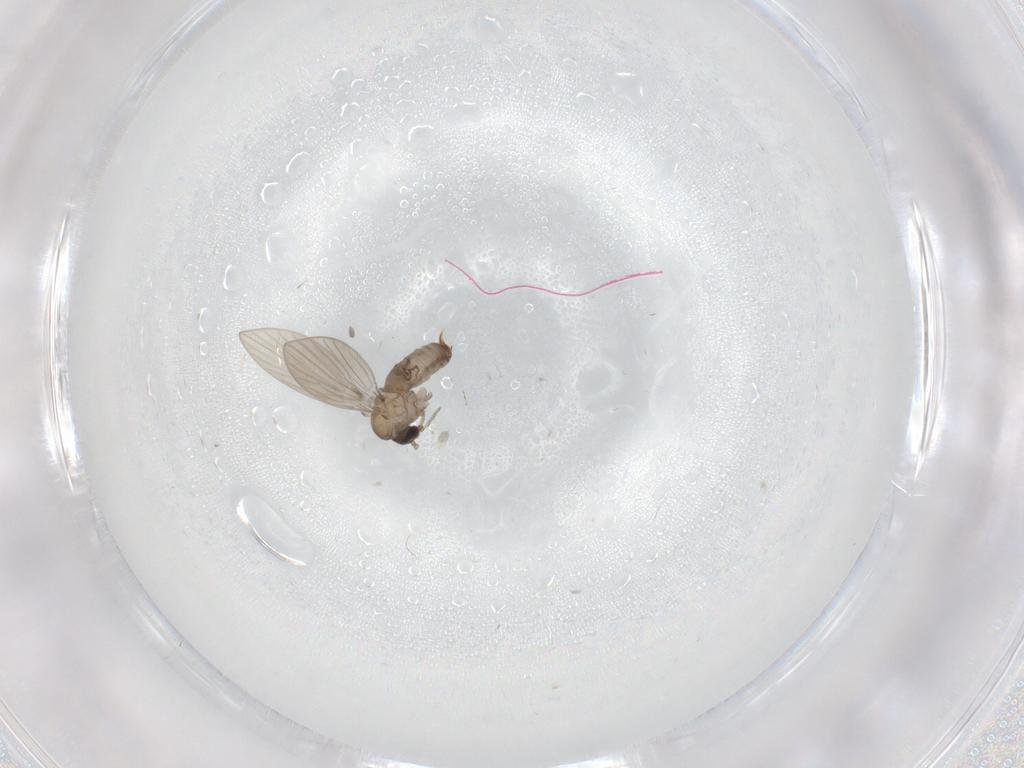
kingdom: Animalia
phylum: Arthropoda
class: Insecta
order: Diptera
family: Psychodidae
